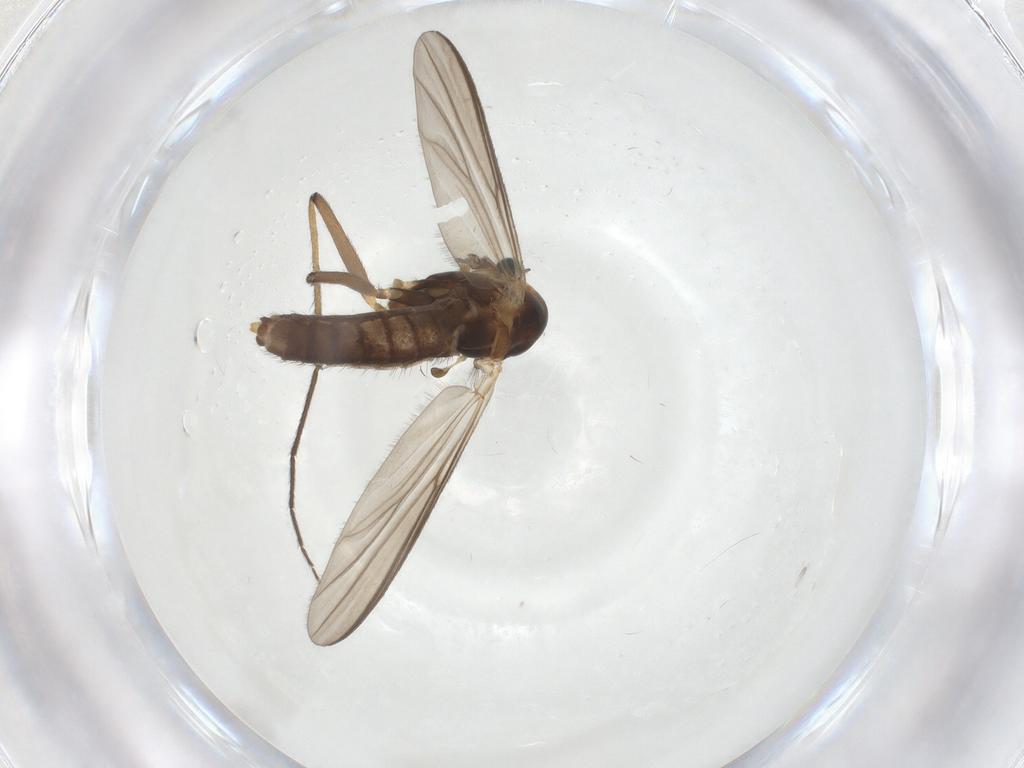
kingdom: Animalia
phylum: Arthropoda
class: Insecta
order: Diptera
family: Chironomidae
